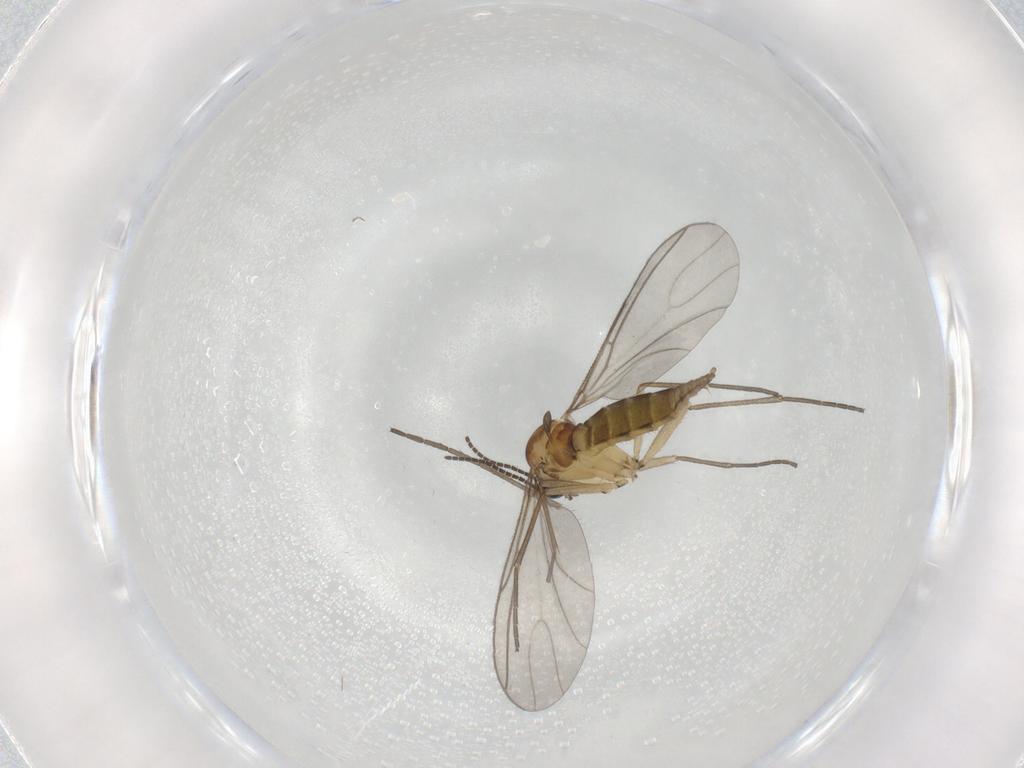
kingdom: Animalia
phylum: Arthropoda
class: Insecta
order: Diptera
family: Sciaridae
